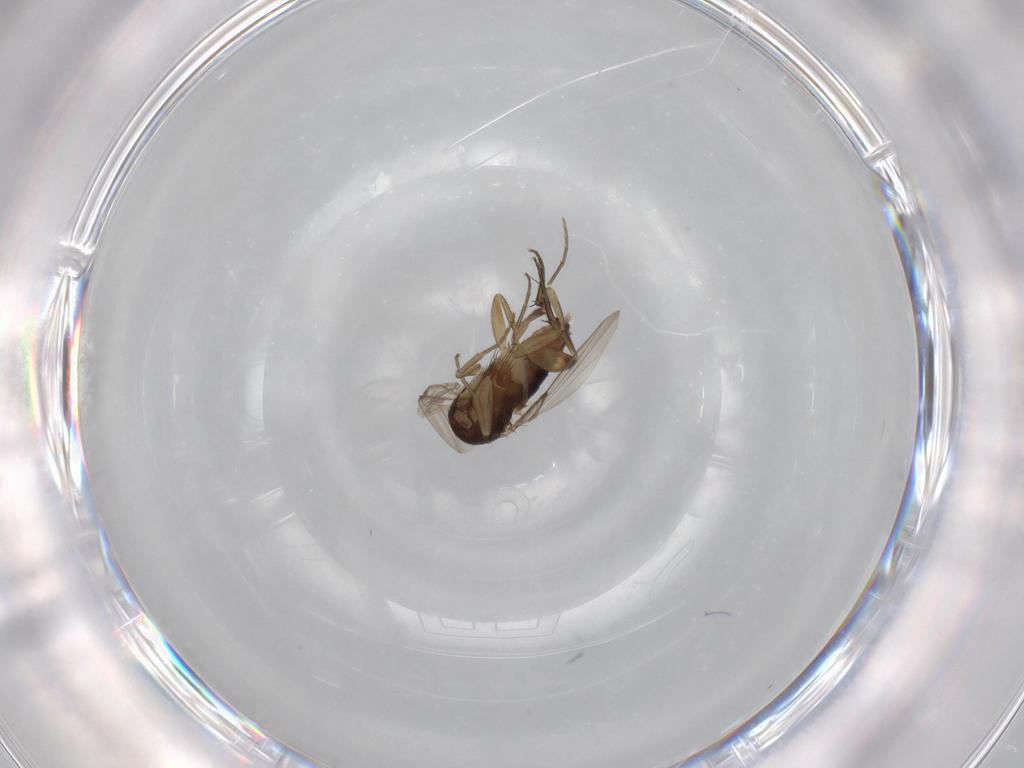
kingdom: Animalia
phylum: Arthropoda
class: Insecta
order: Diptera
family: Phoridae
